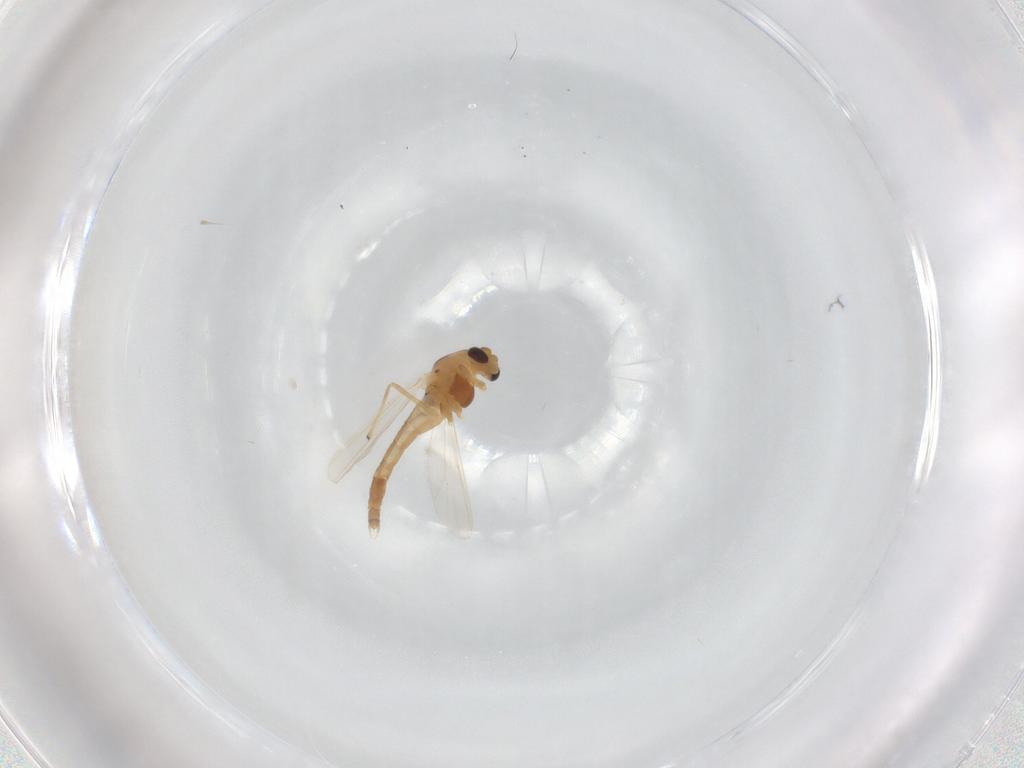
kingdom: Animalia
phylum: Arthropoda
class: Insecta
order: Diptera
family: Chironomidae
